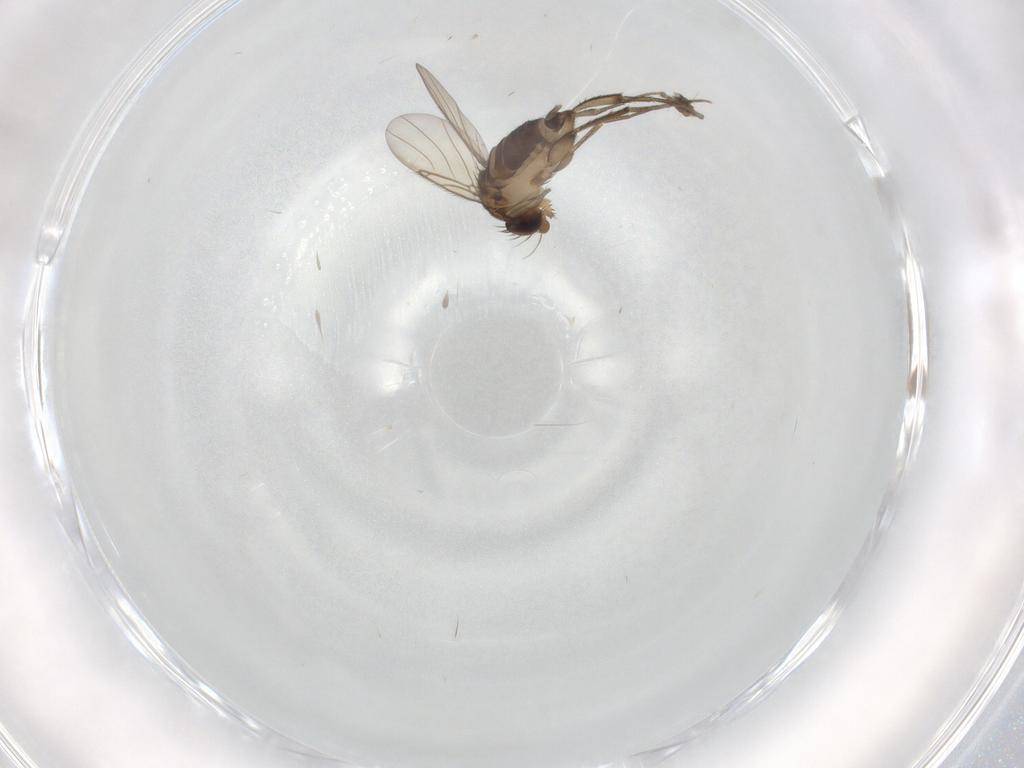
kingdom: Animalia
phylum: Arthropoda
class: Insecta
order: Diptera
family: Phoridae
